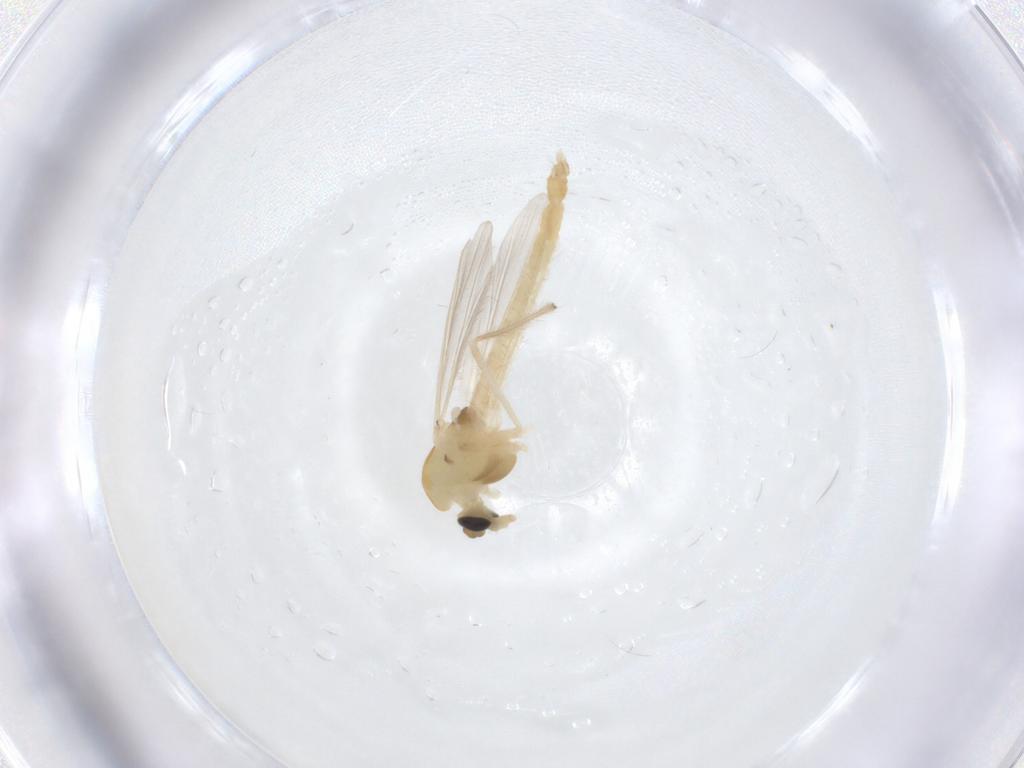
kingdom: Animalia
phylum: Arthropoda
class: Insecta
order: Diptera
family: Chironomidae
